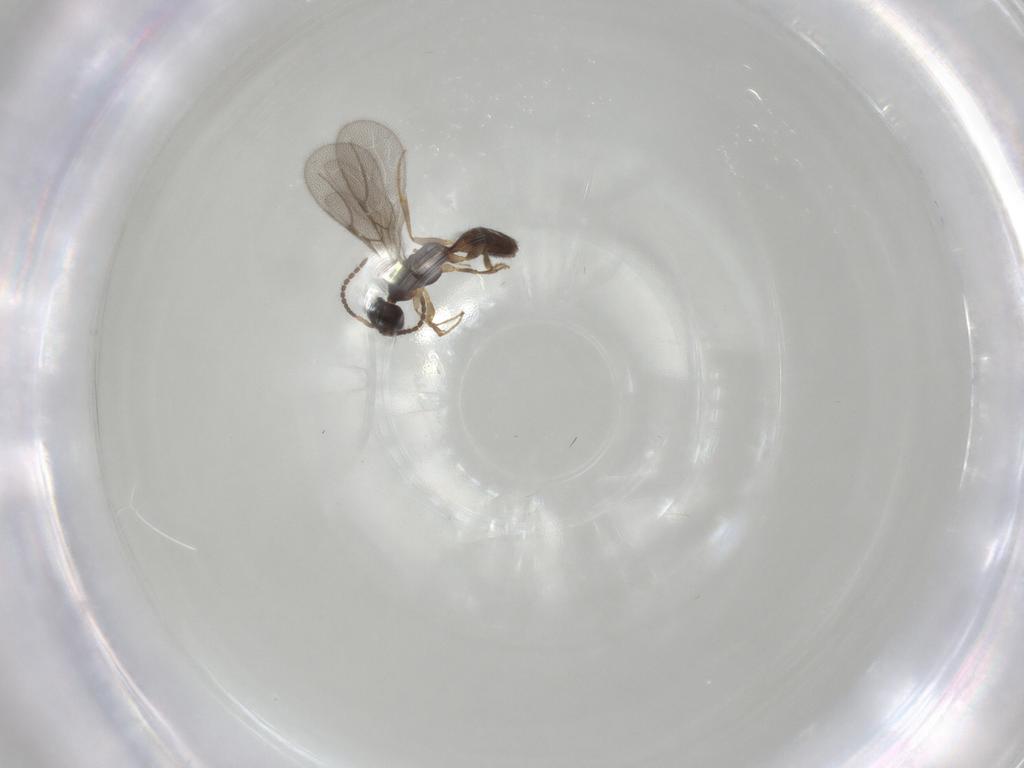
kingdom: Animalia
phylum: Arthropoda
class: Insecta
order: Hymenoptera
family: Bethylidae
